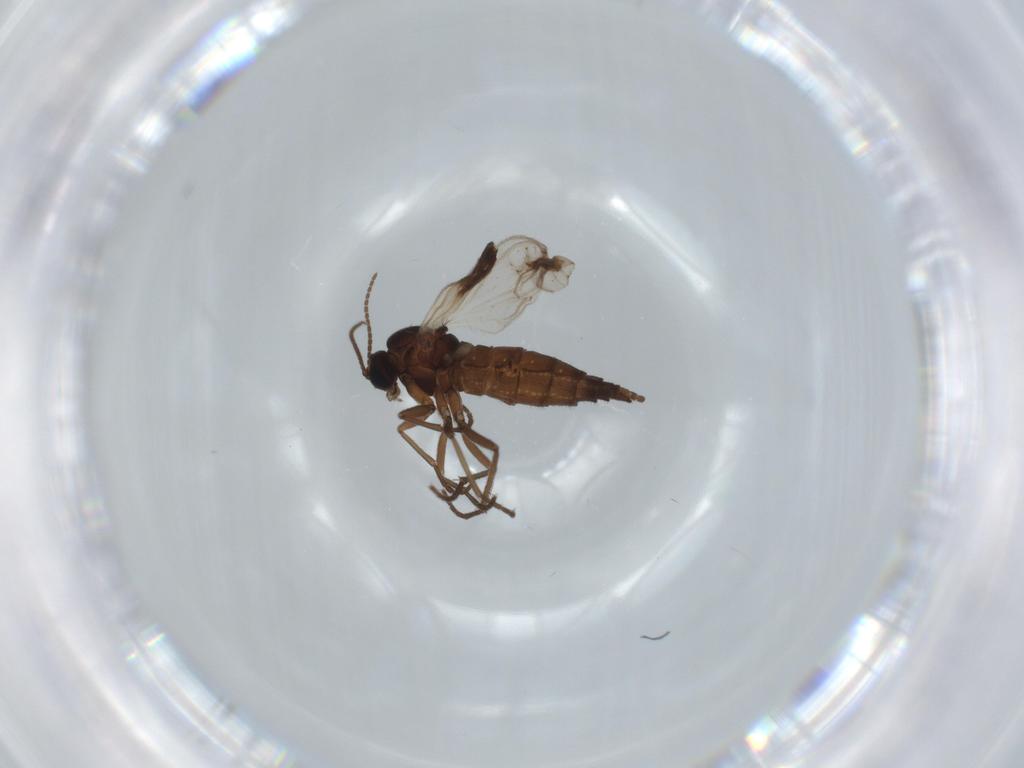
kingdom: Animalia
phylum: Arthropoda
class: Insecta
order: Diptera
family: Sciaridae
